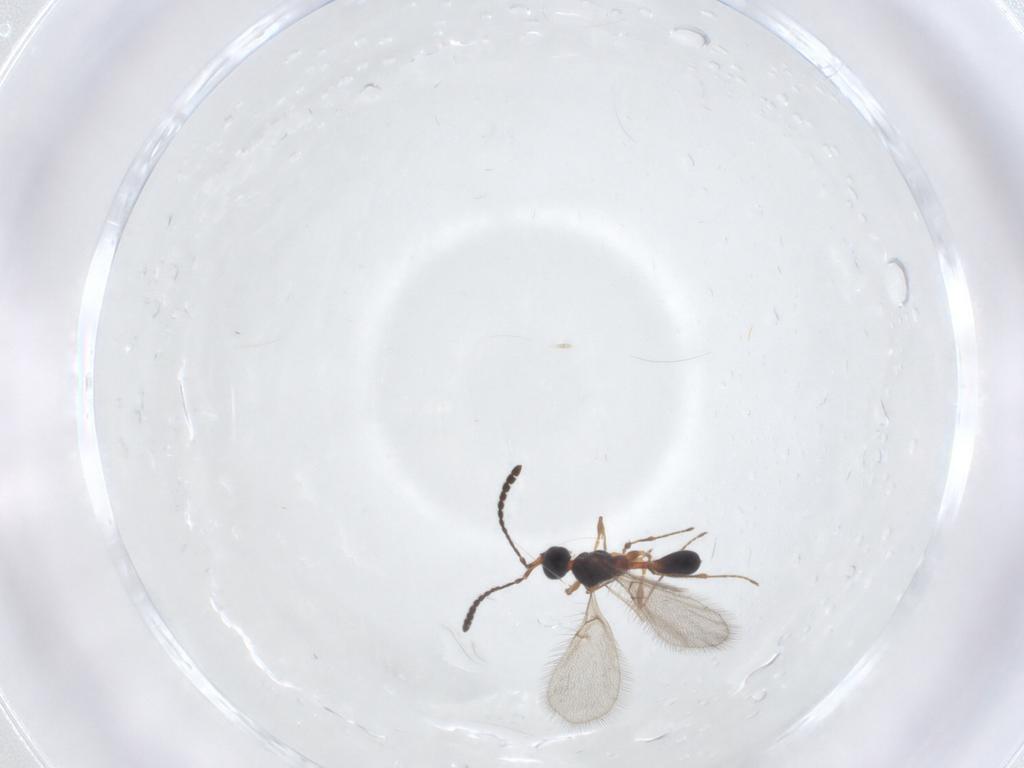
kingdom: Animalia
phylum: Arthropoda
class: Insecta
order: Hymenoptera
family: Diapriidae
